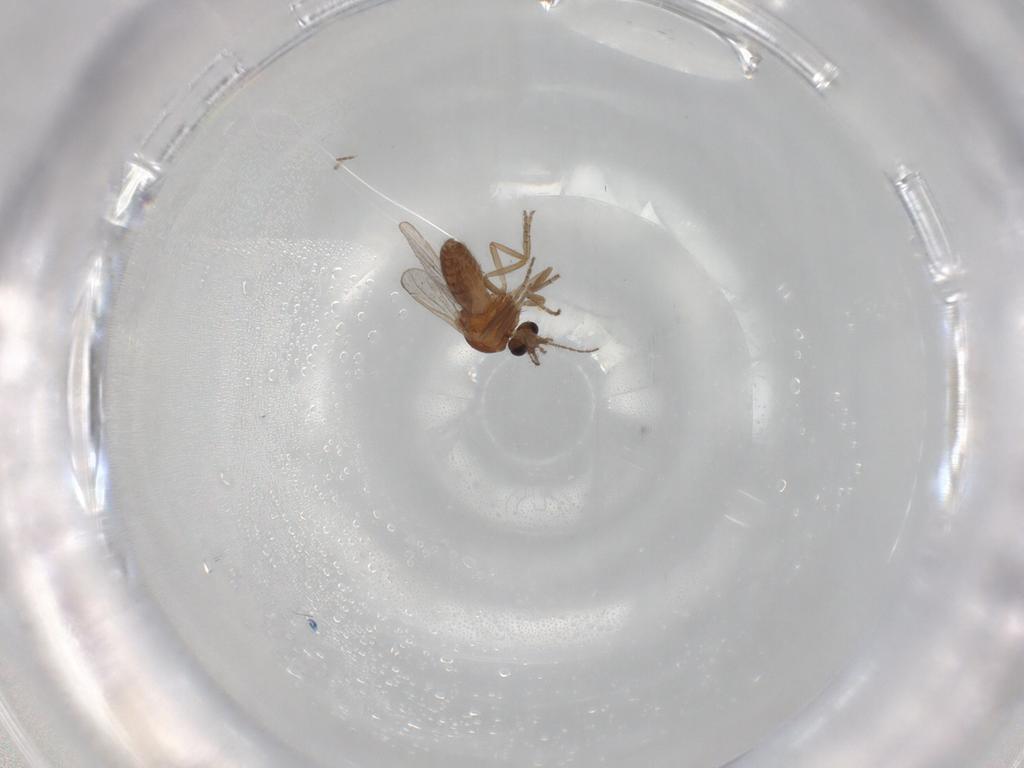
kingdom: Animalia
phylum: Arthropoda
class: Insecta
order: Diptera
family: Ceratopogonidae
